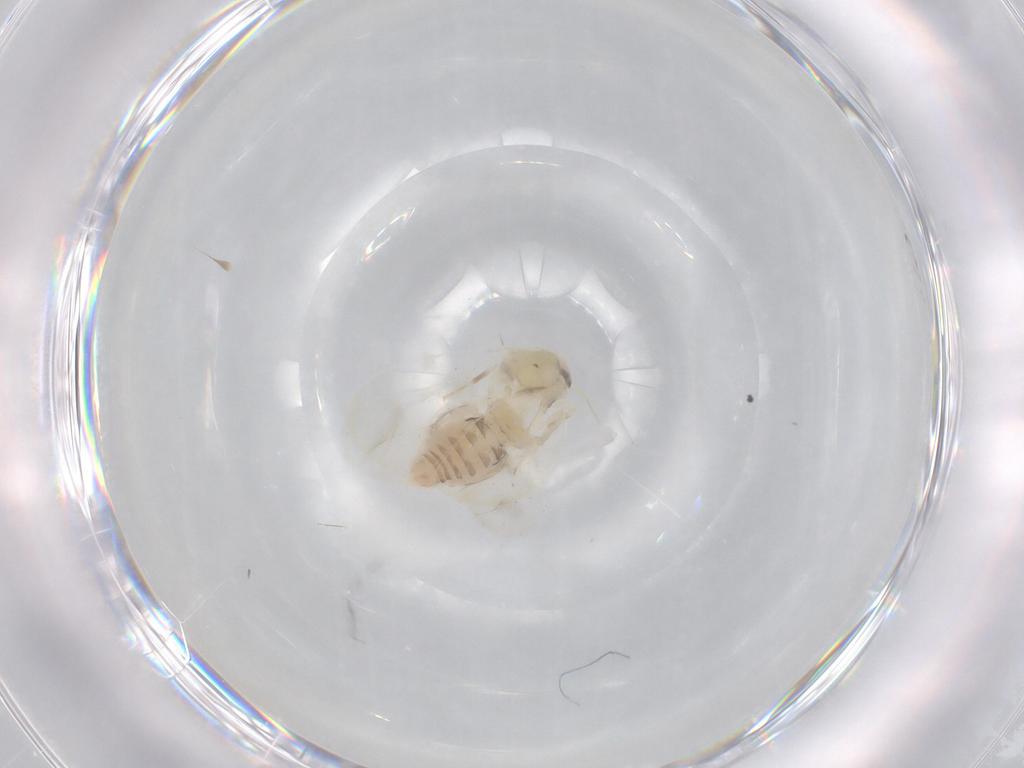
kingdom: Animalia
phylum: Arthropoda
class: Insecta
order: Hemiptera
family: Aleyrodidae
